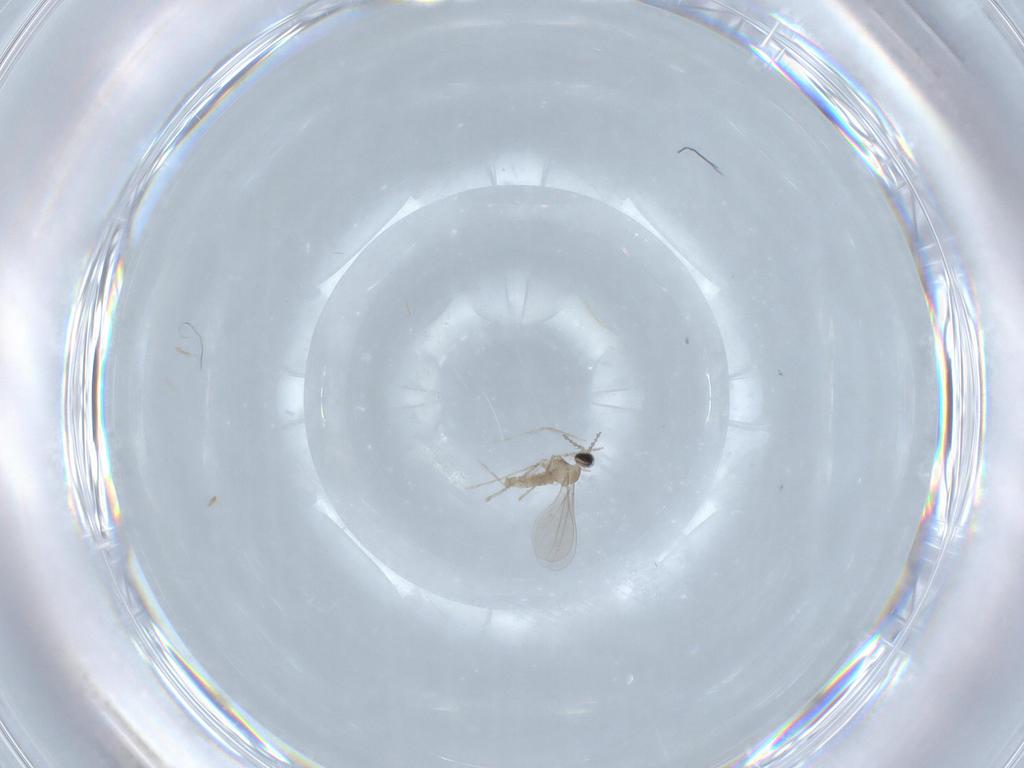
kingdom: Animalia
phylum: Arthropoda
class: Insecta
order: Diptera
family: Cecidomyiidae
